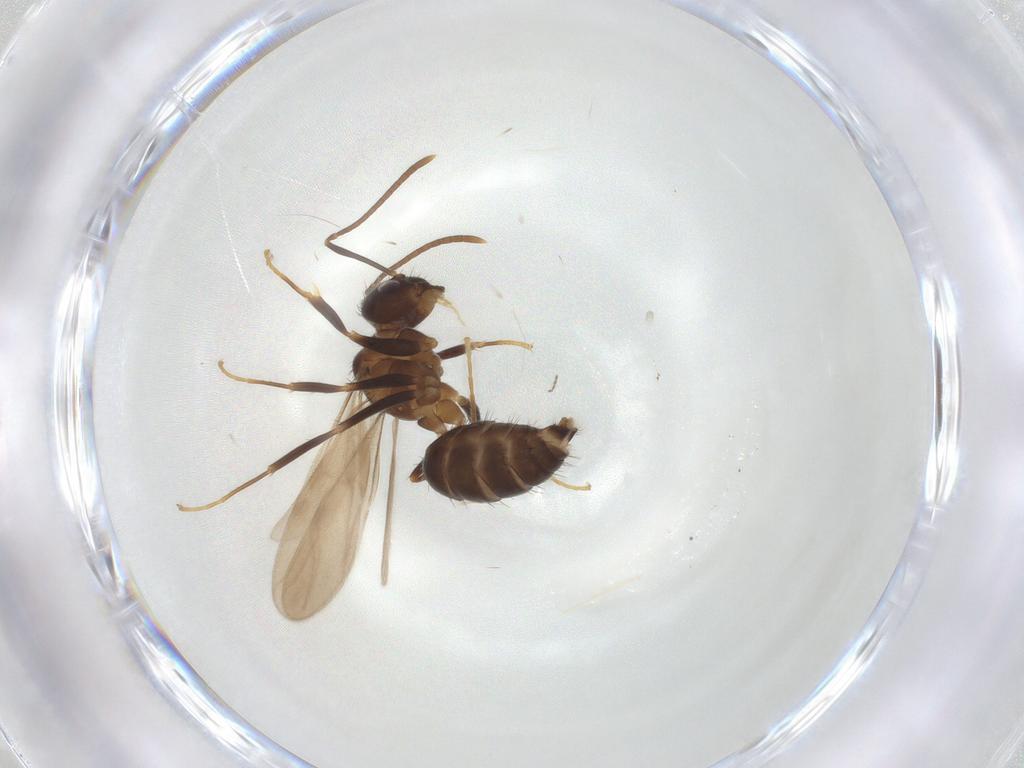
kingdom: Animalia
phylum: Arthropoda
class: Insecta
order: Hymenoptera
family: Formicidae
